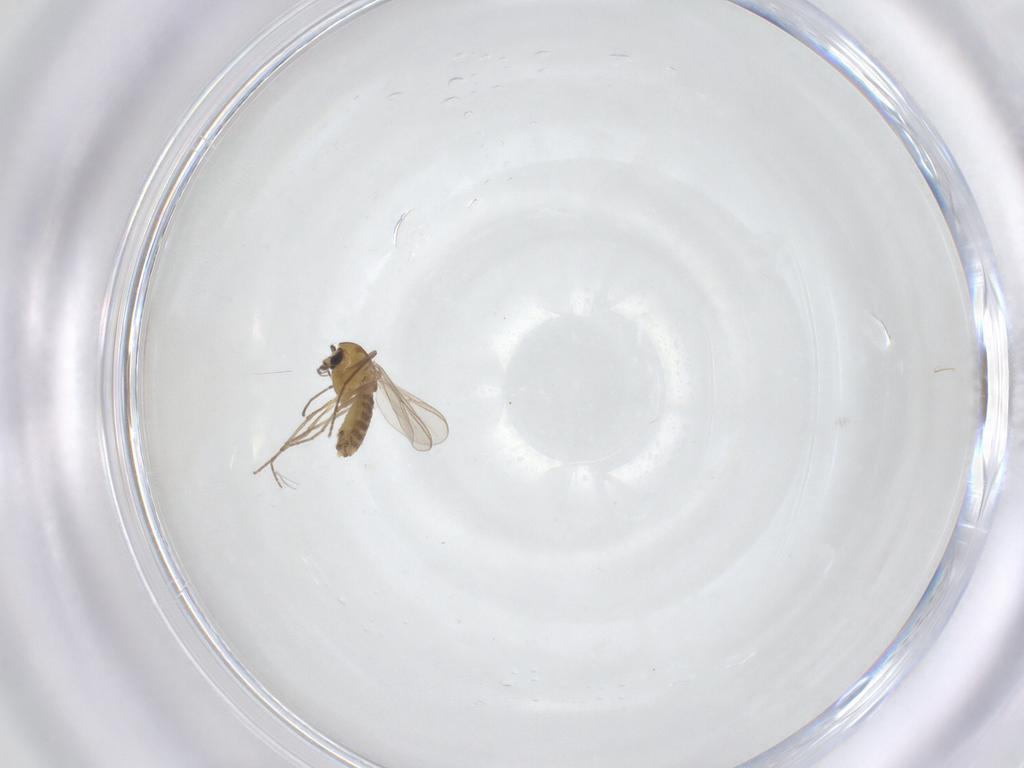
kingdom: Animalia
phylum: Arthropoda
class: Insecta
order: Diptera
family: Chironomidae
